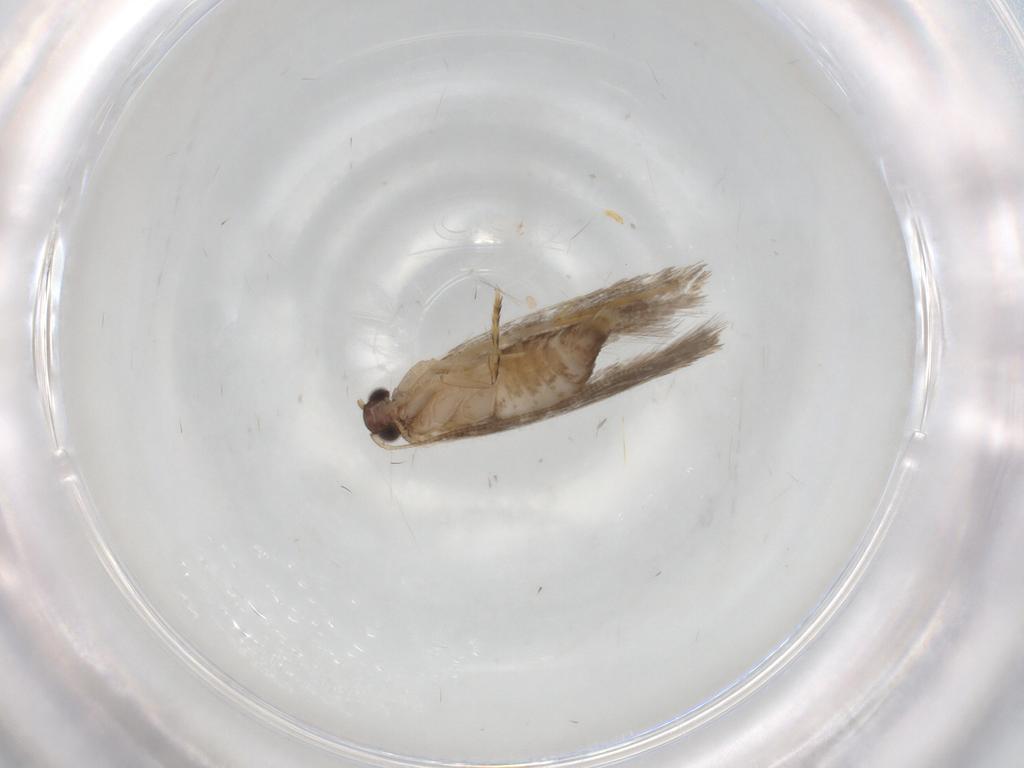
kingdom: Animalia
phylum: Arthropoda
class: Insecta
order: Lepidoptera
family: Tineidae
